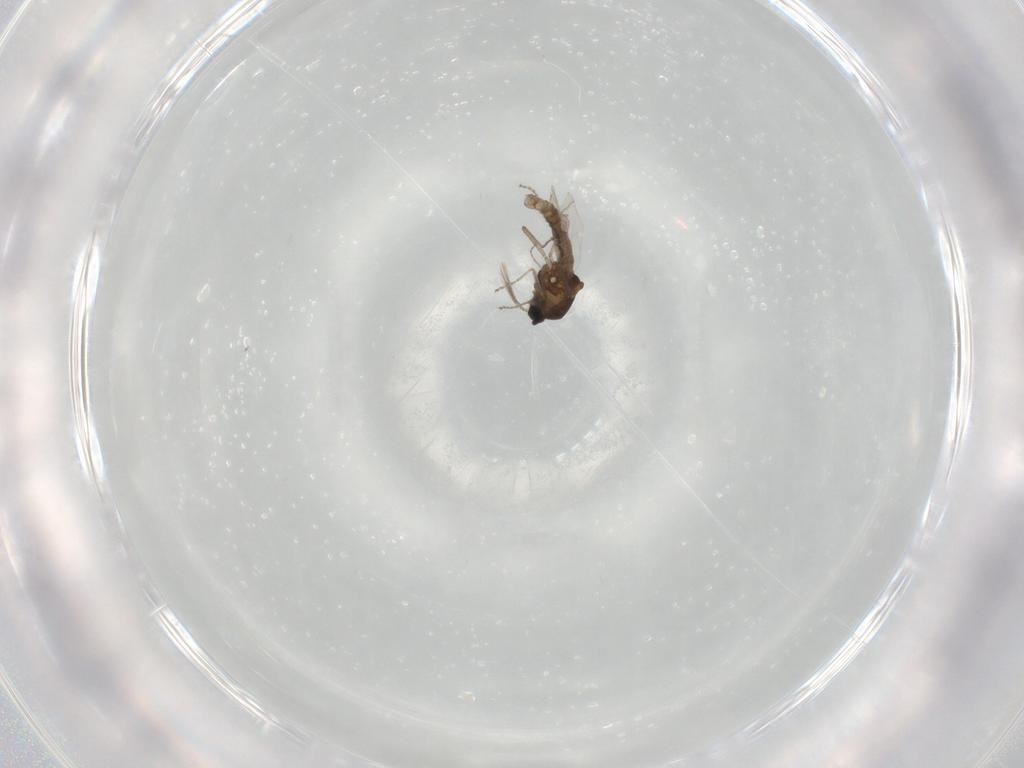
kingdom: Animalia
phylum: Arthropoda
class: Insecta
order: Diptera
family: Ceratopogonidae
